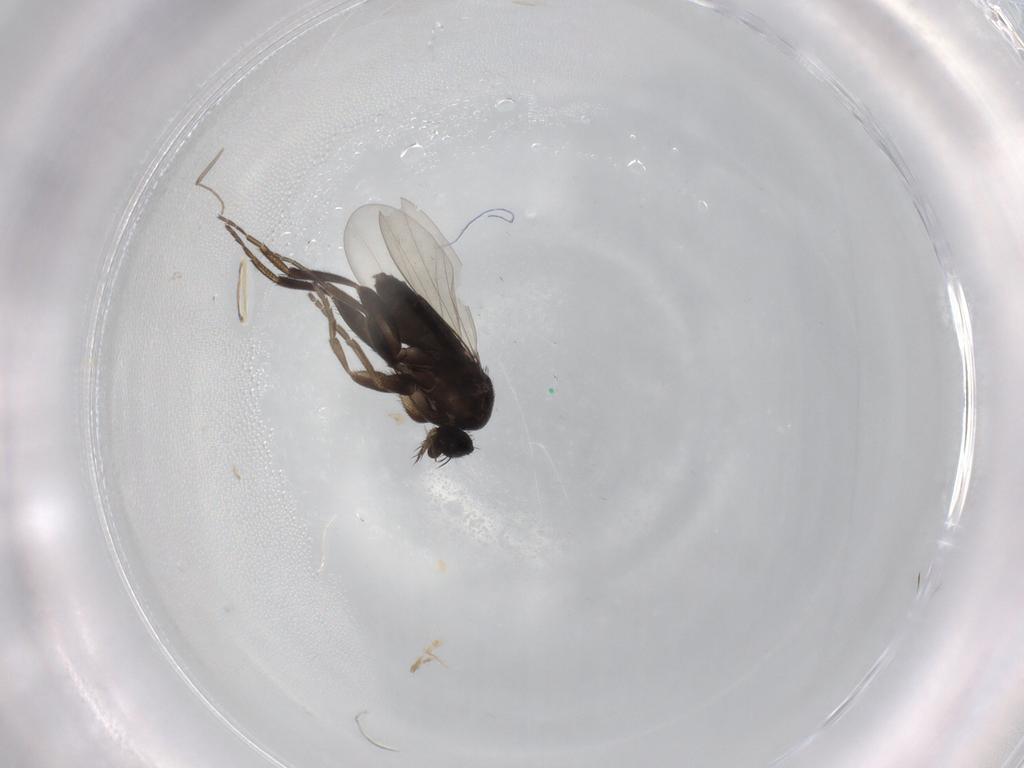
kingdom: Animalia
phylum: Arthropoda
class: Insecta
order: Diptera
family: Phoridae
